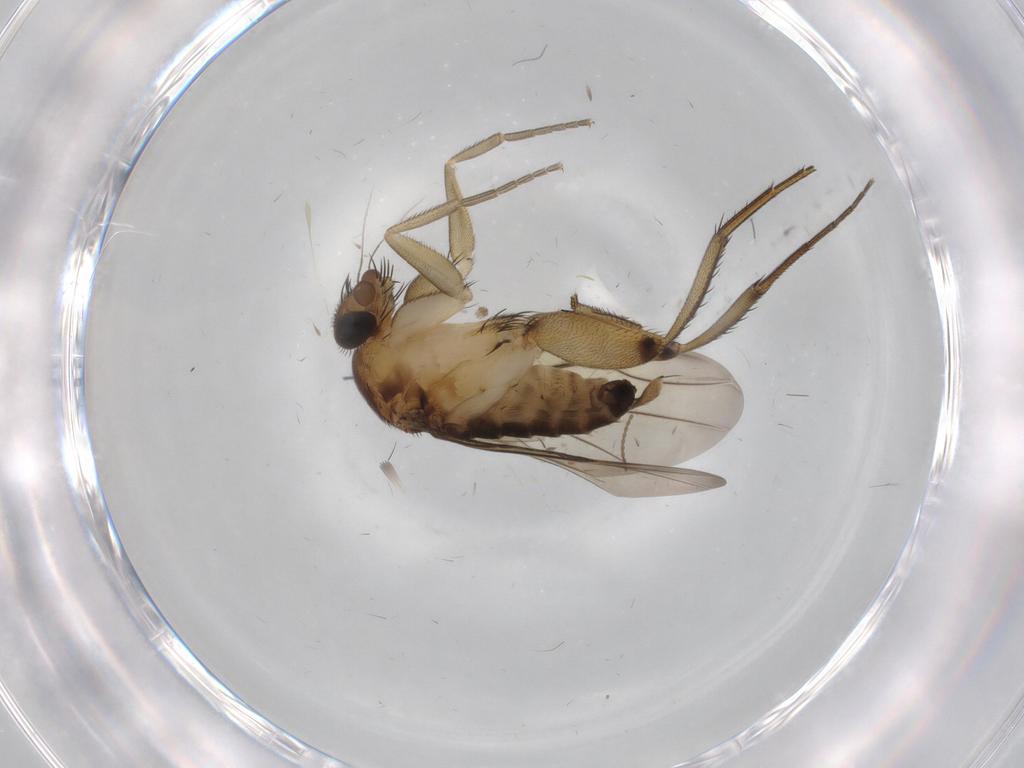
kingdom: Animalia
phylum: Arthropoda
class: Insecta
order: Diptera
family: Phoridae
